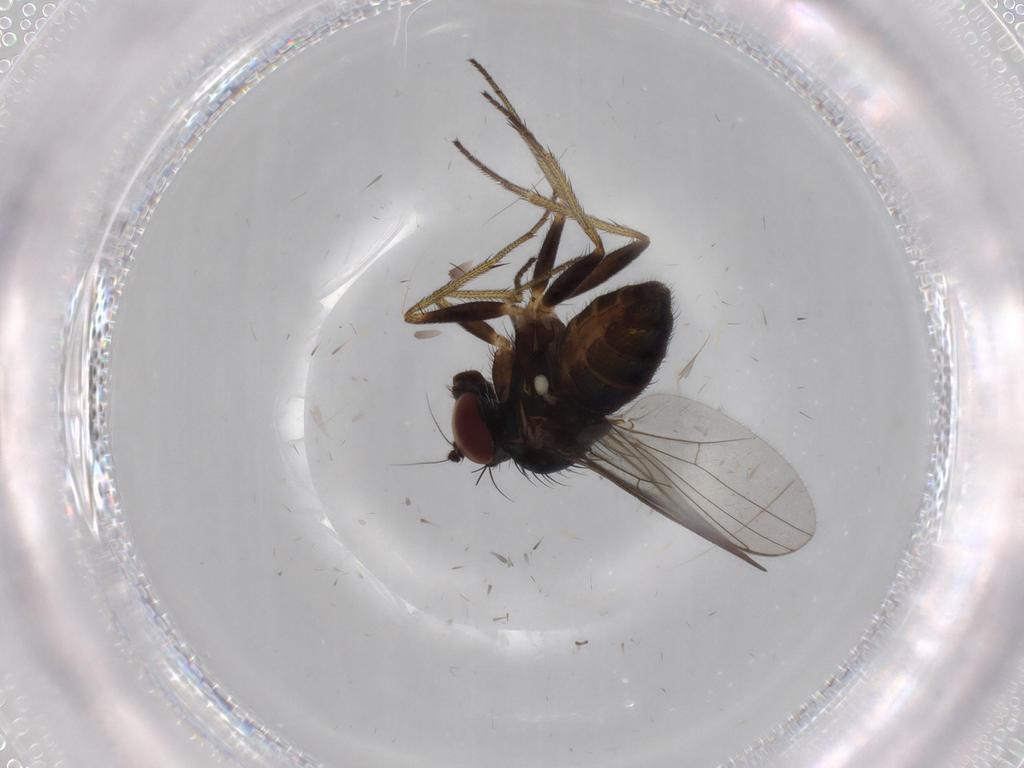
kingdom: Animalia
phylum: Arthropoda
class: Insecta
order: Diptera
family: Dolichopodidae
